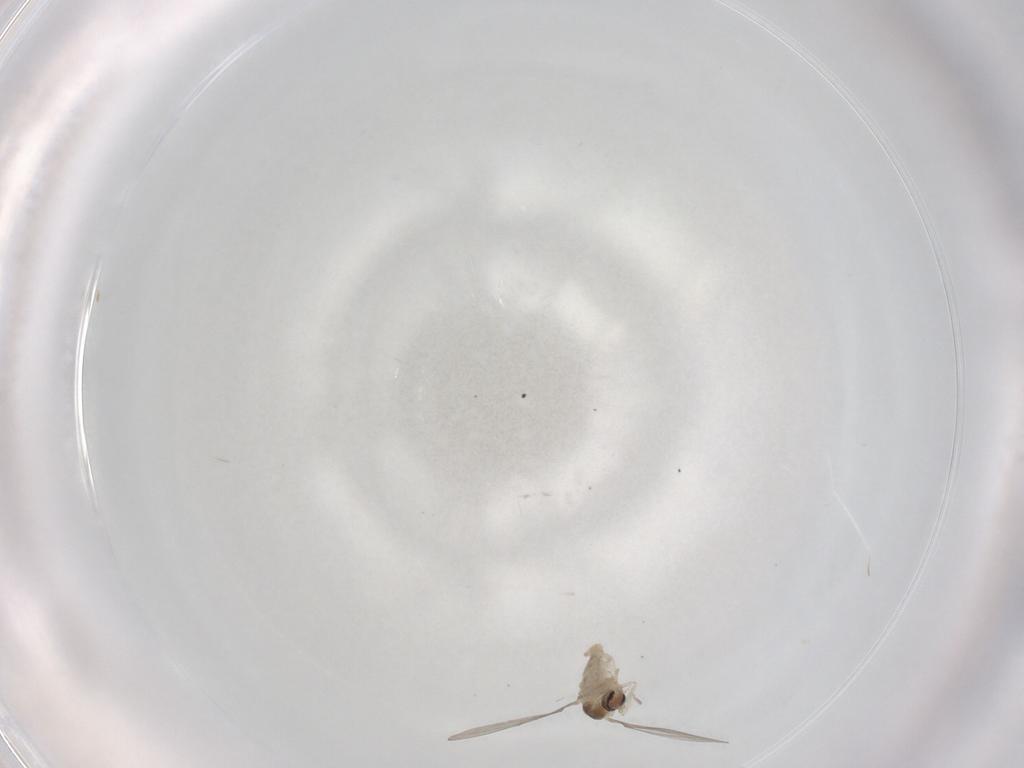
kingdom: Animalia
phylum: Arthropoda
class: Insecta
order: Diptera
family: Cecidomyiidae
